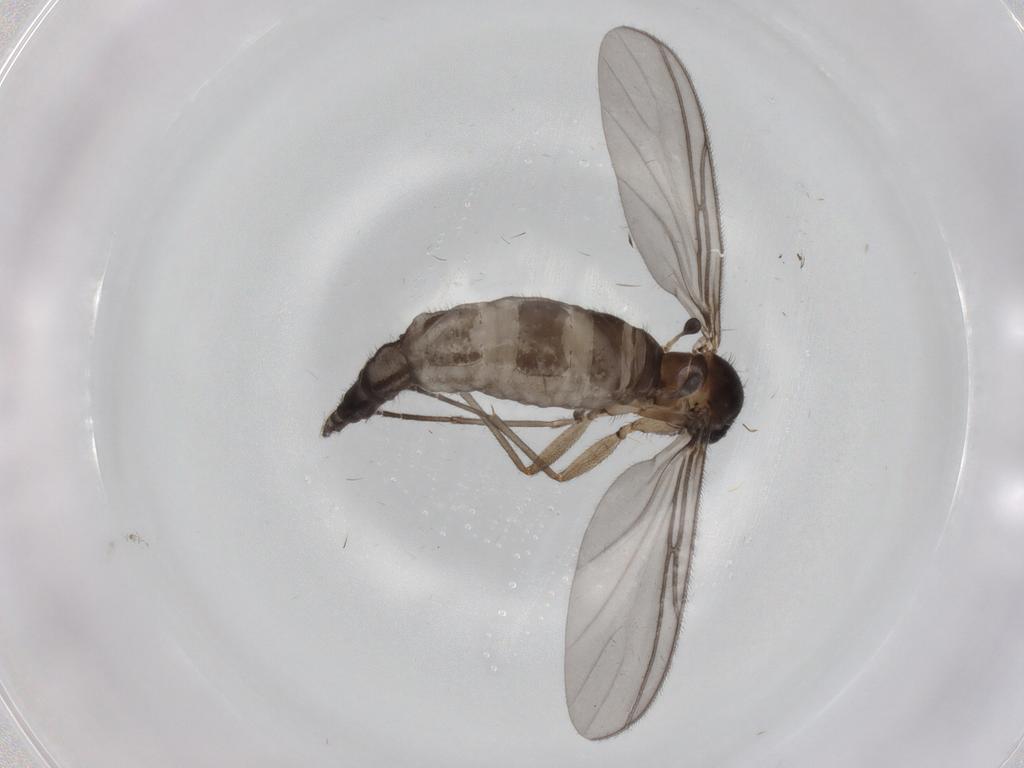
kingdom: Animalia
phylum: Arthropoda
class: Insecta
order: Diptera
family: Sciaridae
